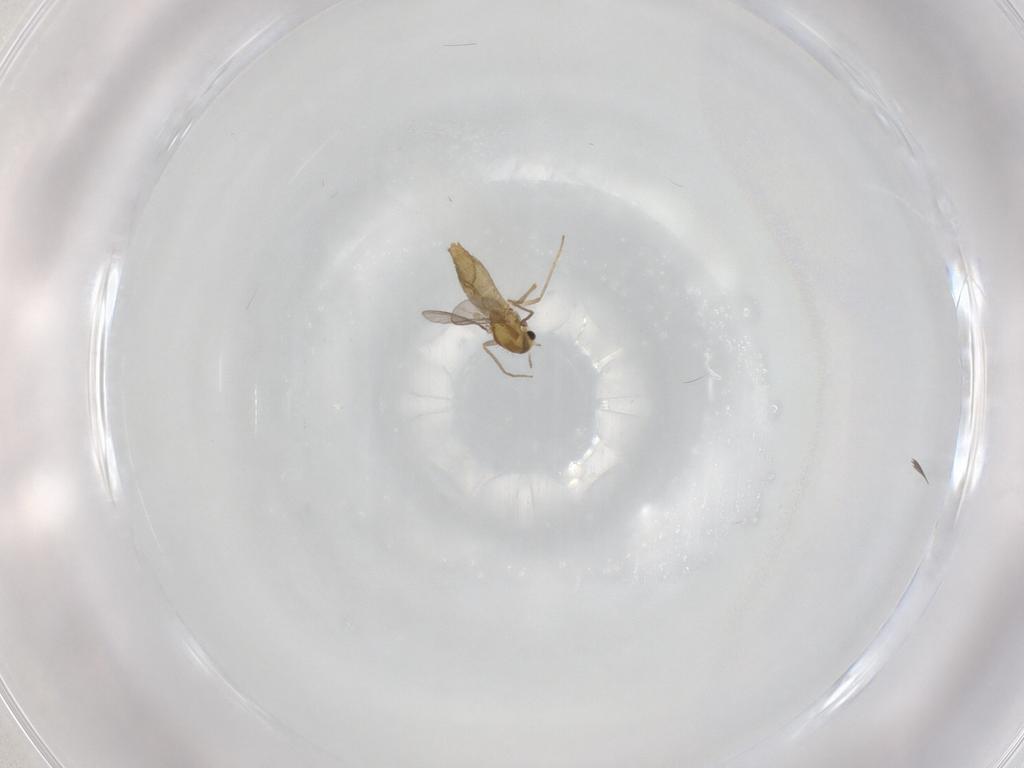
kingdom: Animalia
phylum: Arthropoda
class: Insecta
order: Diptera
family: Chironomidae
